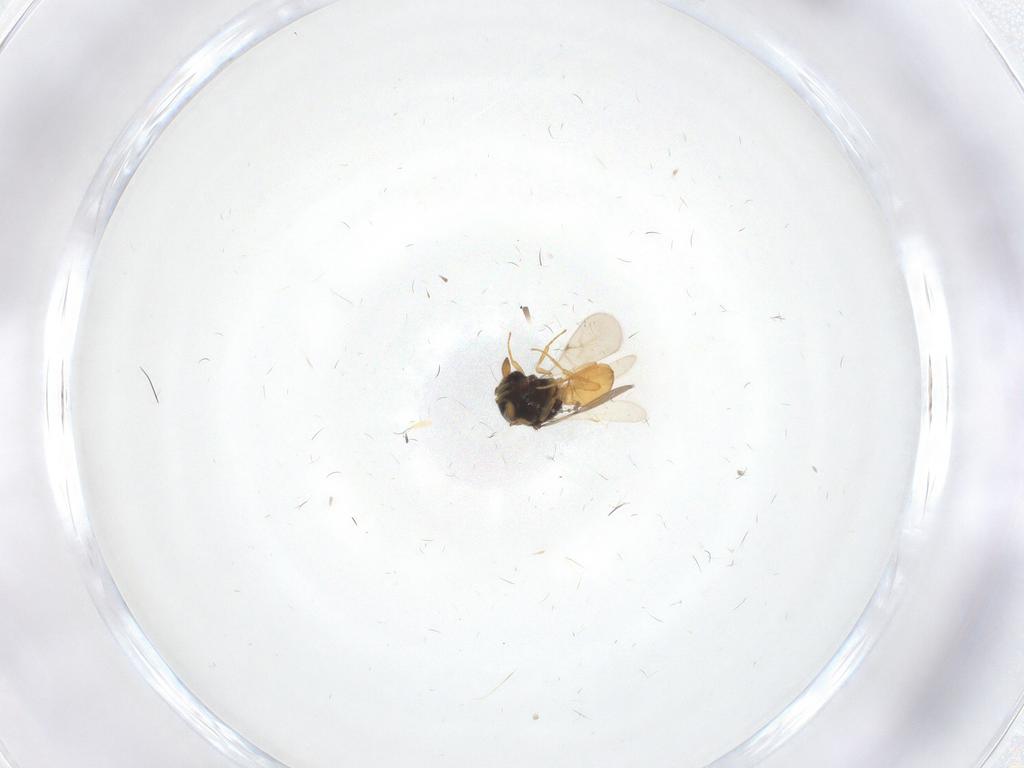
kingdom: Animalia
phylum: Arthropoda
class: Insecta
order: Hymenoptera
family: Scelionidae
